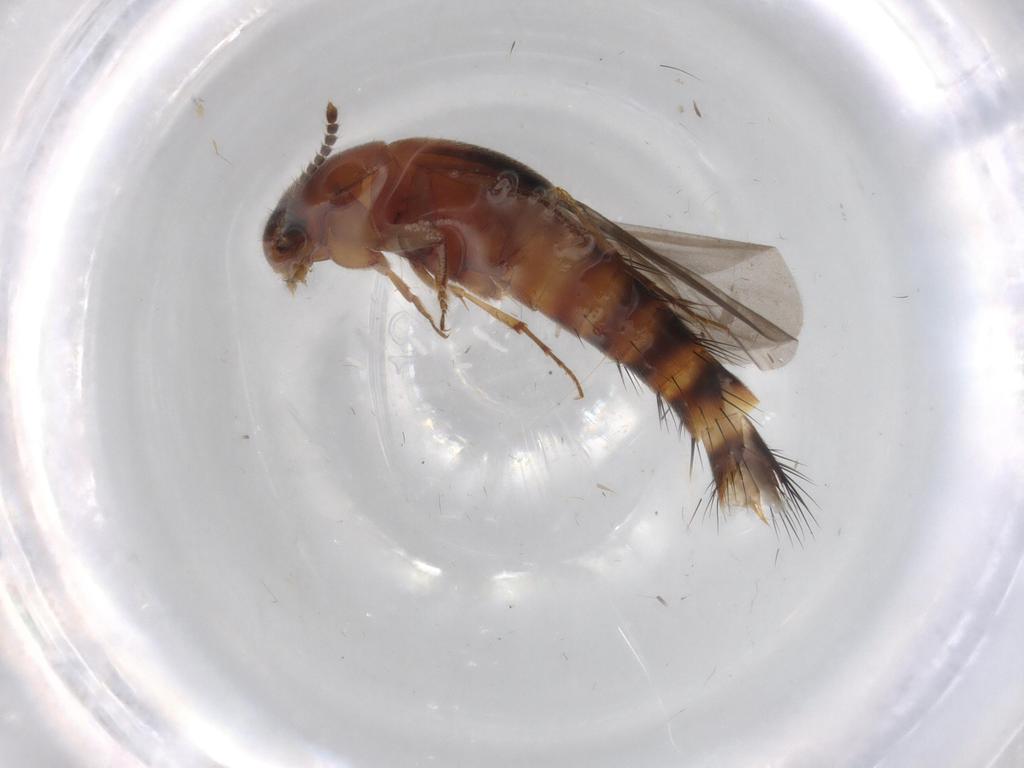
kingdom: Animalia
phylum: Arthropoda
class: Insecta
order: Coleoptera
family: Staphylinidae
